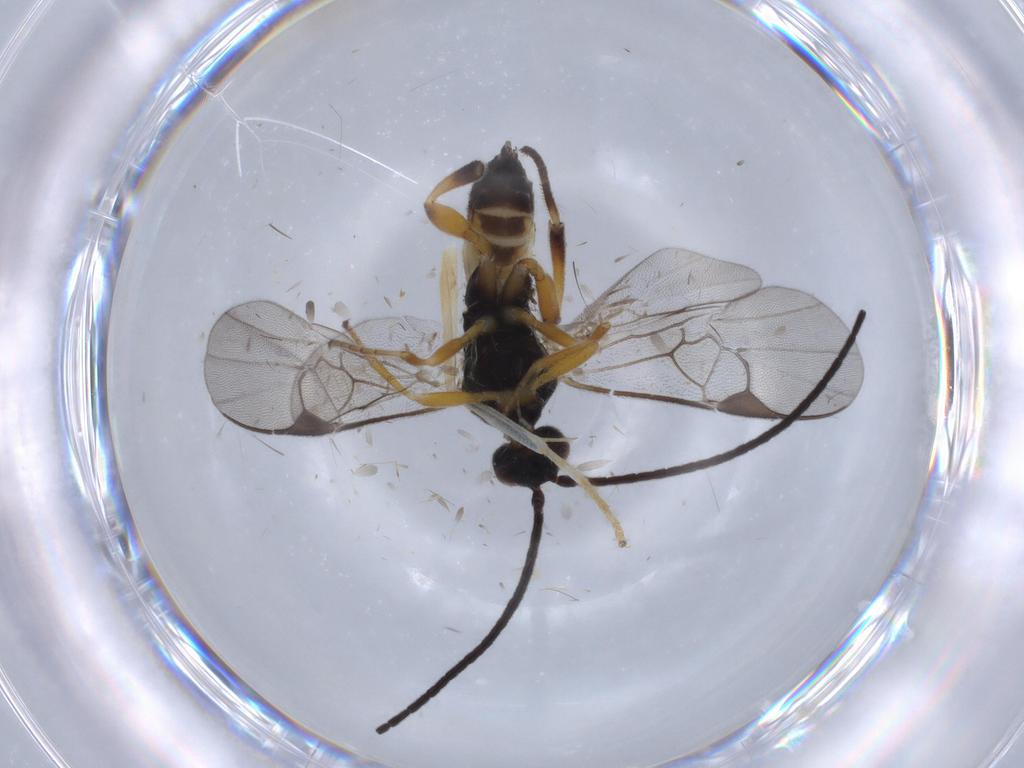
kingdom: Animalia
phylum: Arthropoda
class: Insecta
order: Hymenoptera
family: Braconidae
